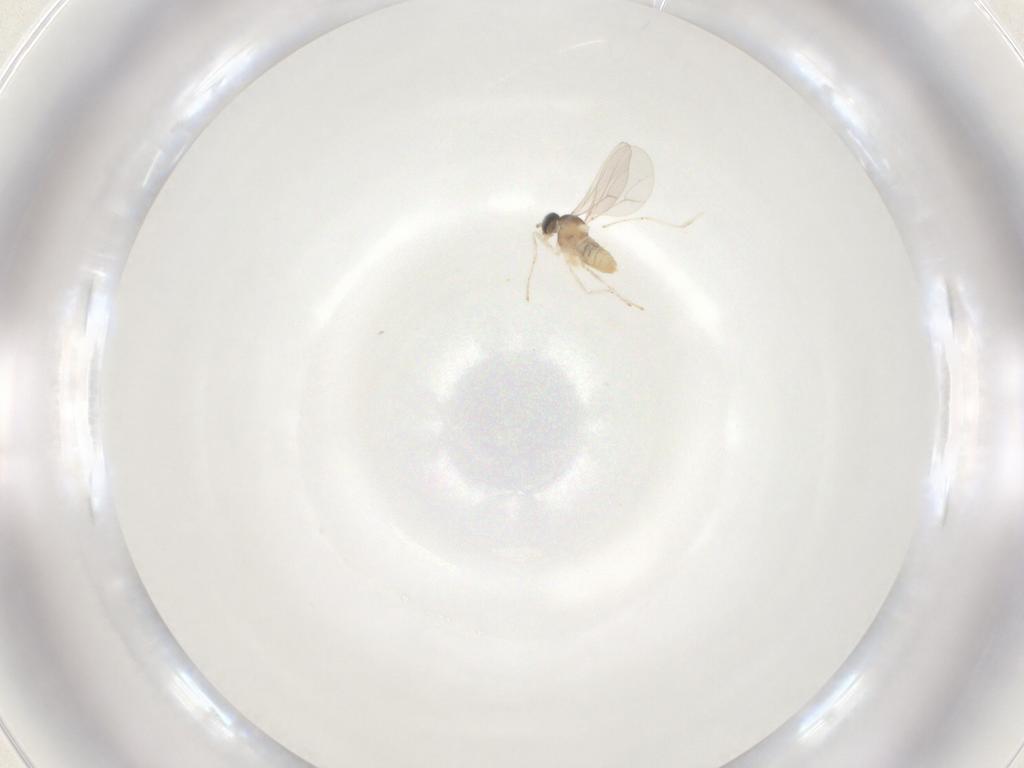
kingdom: Animalia
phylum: Arthropoda
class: Insecta
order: Diptera
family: Cecidomyiidae
